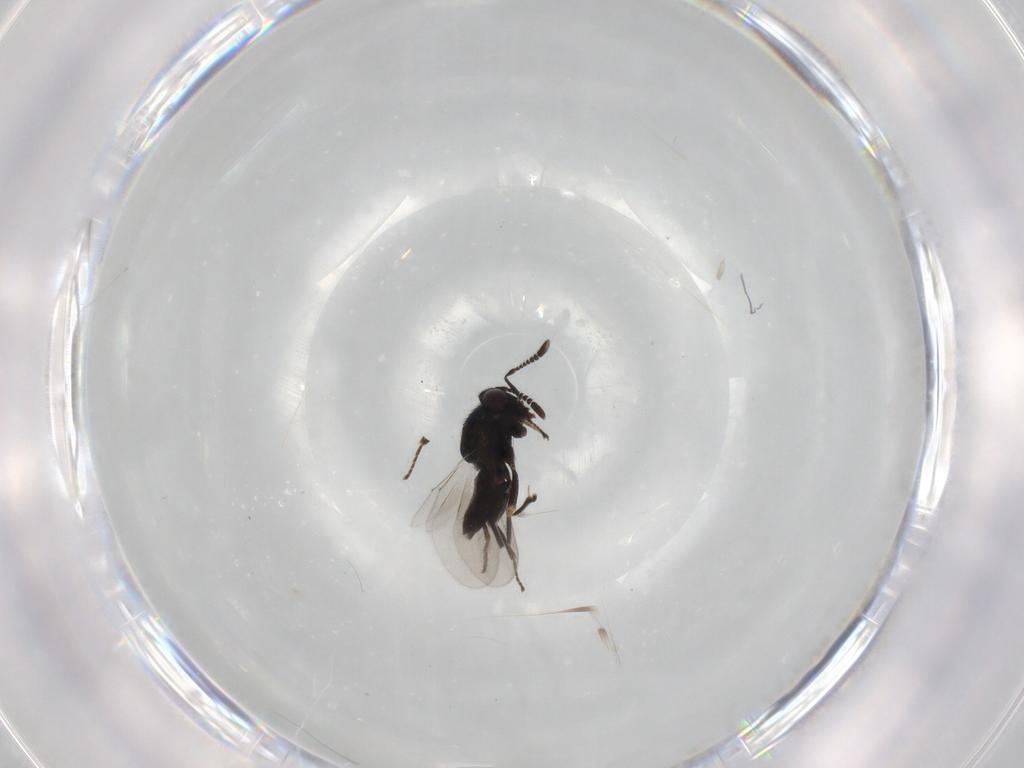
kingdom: Animalia
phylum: Arthropoda
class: Insecta
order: Hymenoptera
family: Encyrtidae
